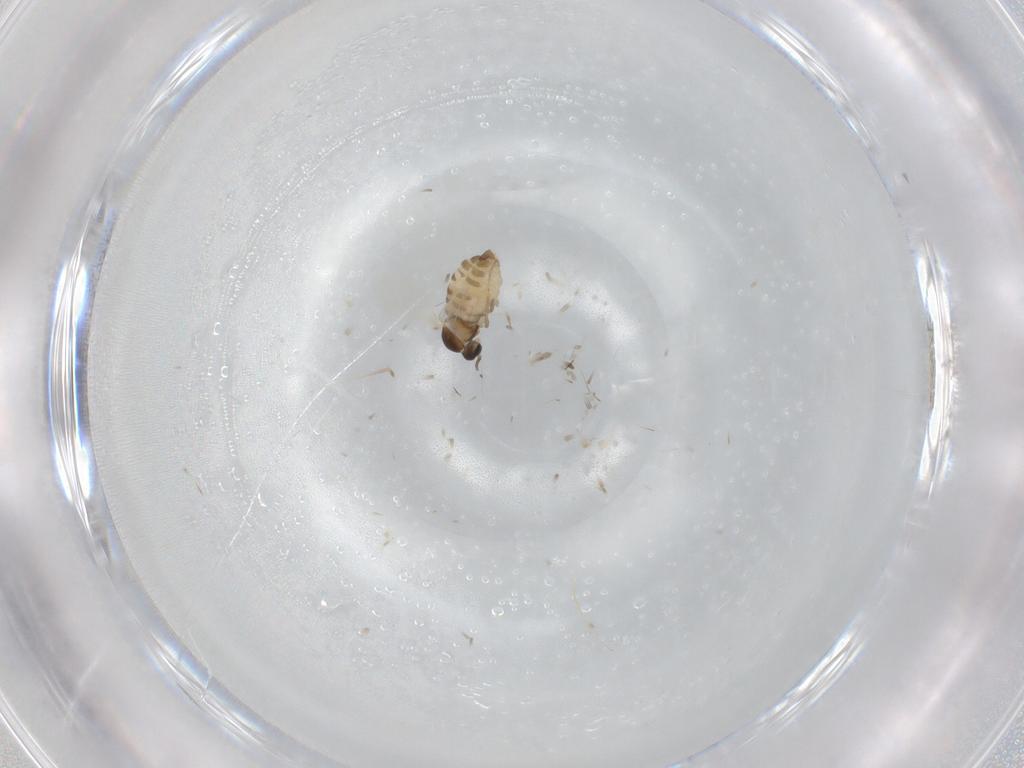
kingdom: Animalia
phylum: Arthropoda
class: Insecta
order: Diptera
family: Cecidomyiidae
